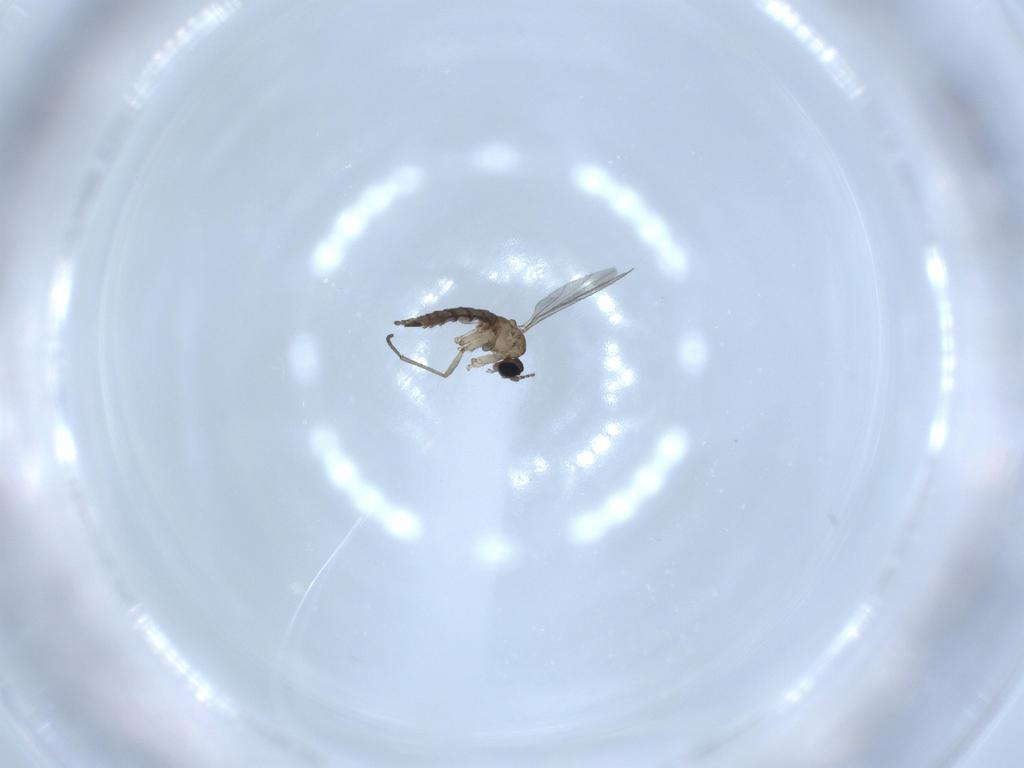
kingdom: Animalia
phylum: Arthropoda
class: Insecta
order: Diptera
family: Sciaridae
